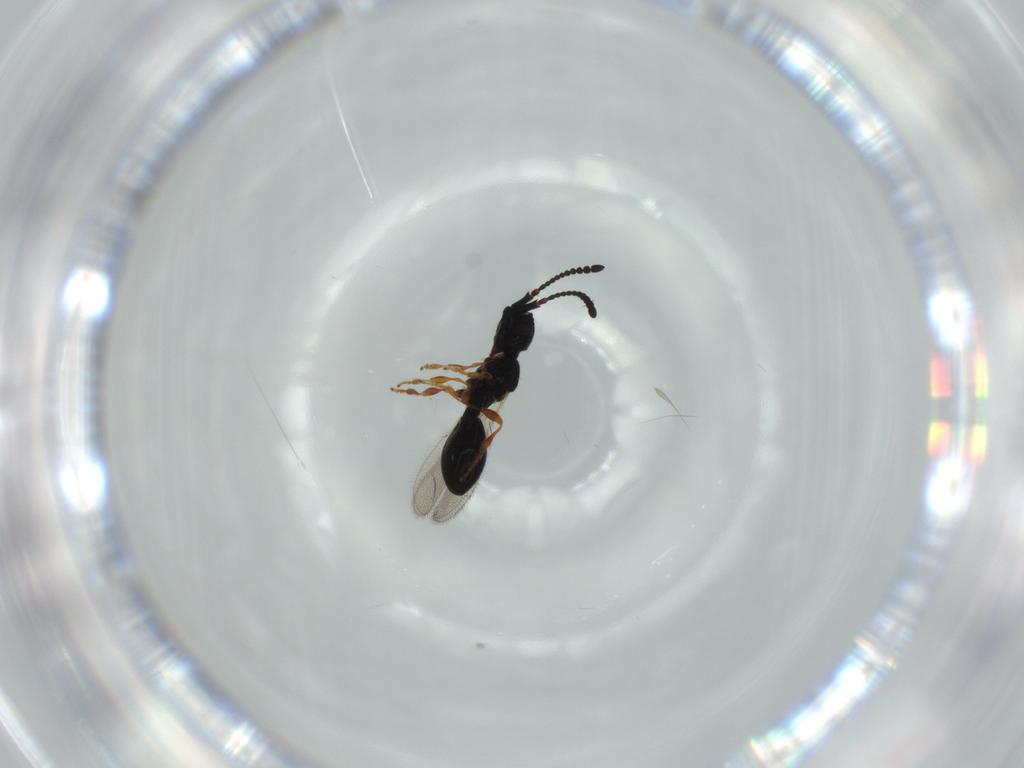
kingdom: Animalia
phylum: Arthropoda
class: Insecta
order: Hymenoptera
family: Diapriidae
